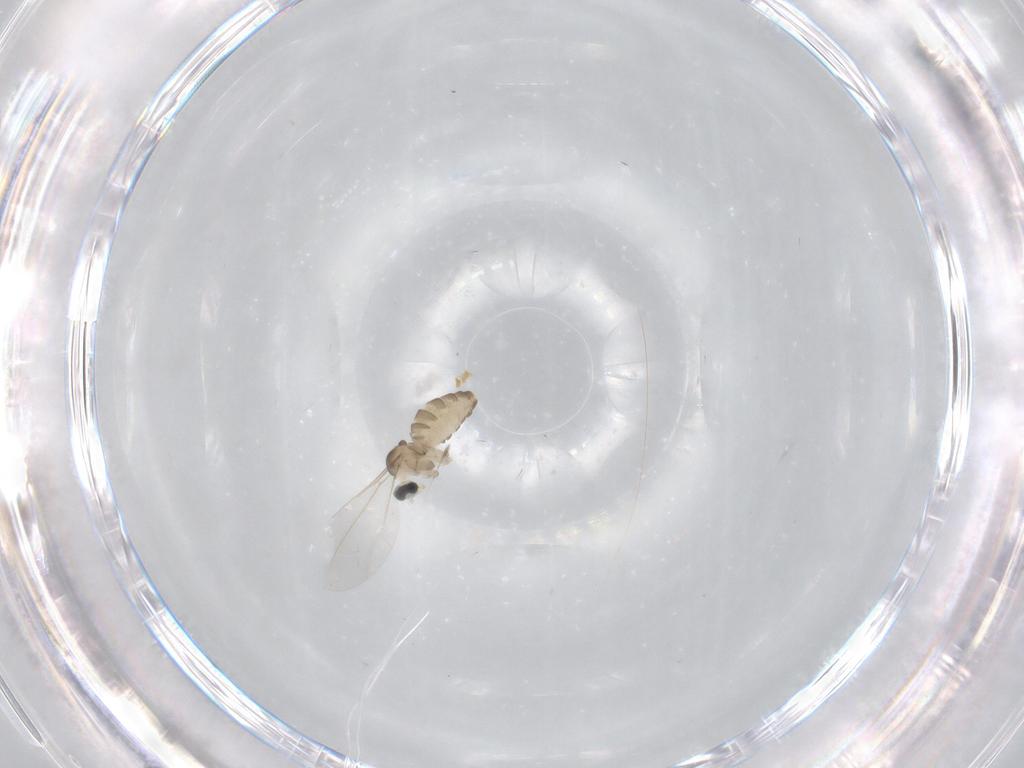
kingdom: Animalia
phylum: Arthropoda
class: Insecta
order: Diptera
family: Cecidomyiidae
